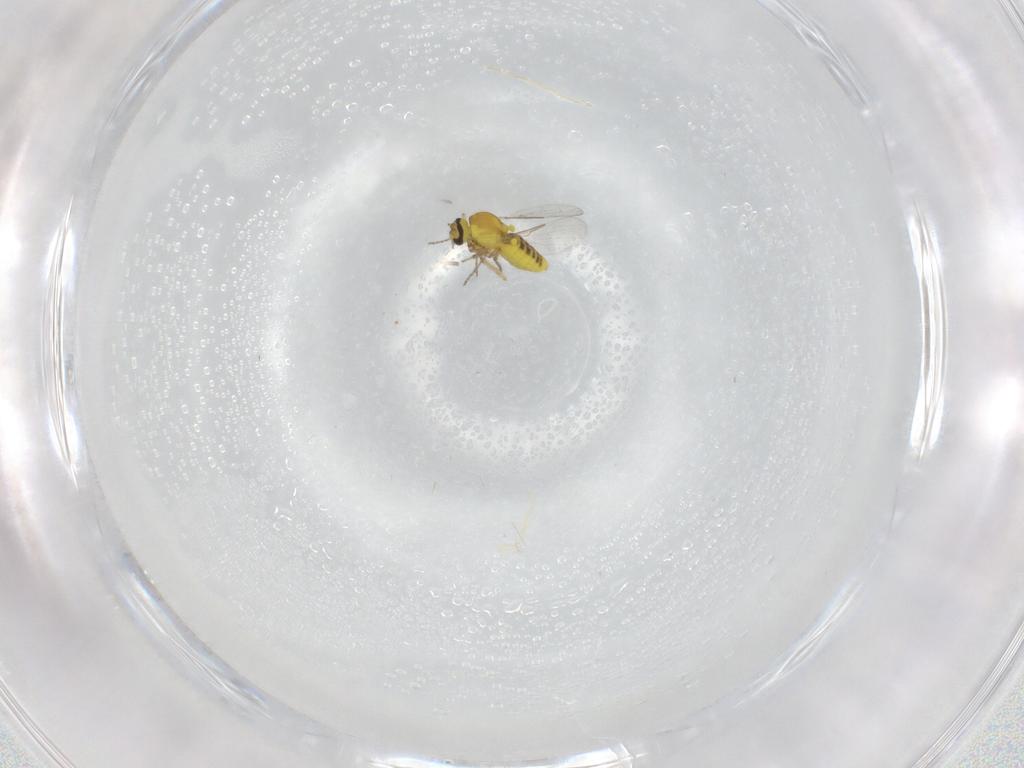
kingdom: Animalia
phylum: Arthropoda
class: Insecta
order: Diptera
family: Ceratopogonidae
